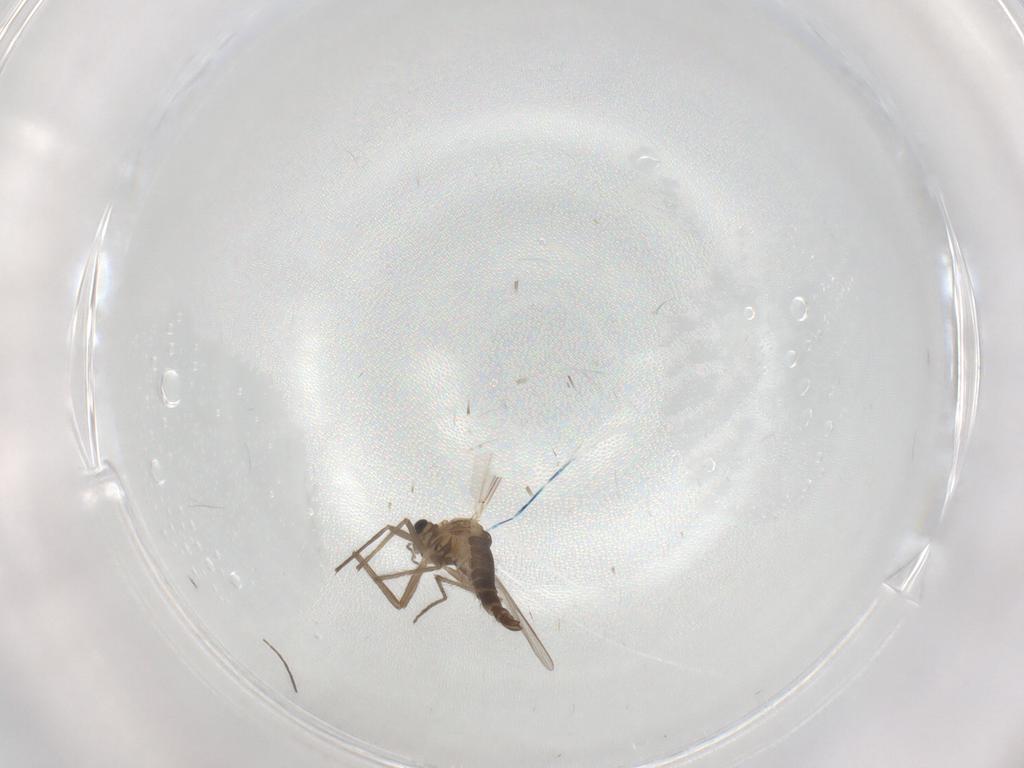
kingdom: Animalia
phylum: Arthropoda
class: Insecta
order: Diptera
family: Chironomidae
